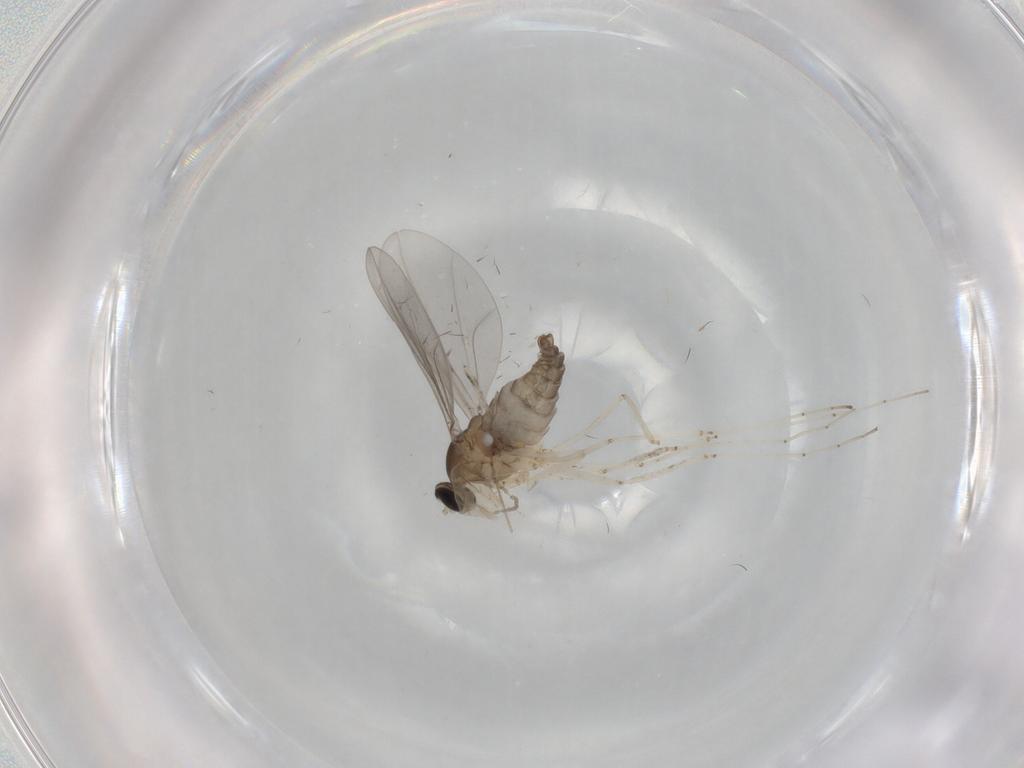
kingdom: Animalia
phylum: Arthropoda
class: Insecta
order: Diptera
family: Cecidomyiidae
